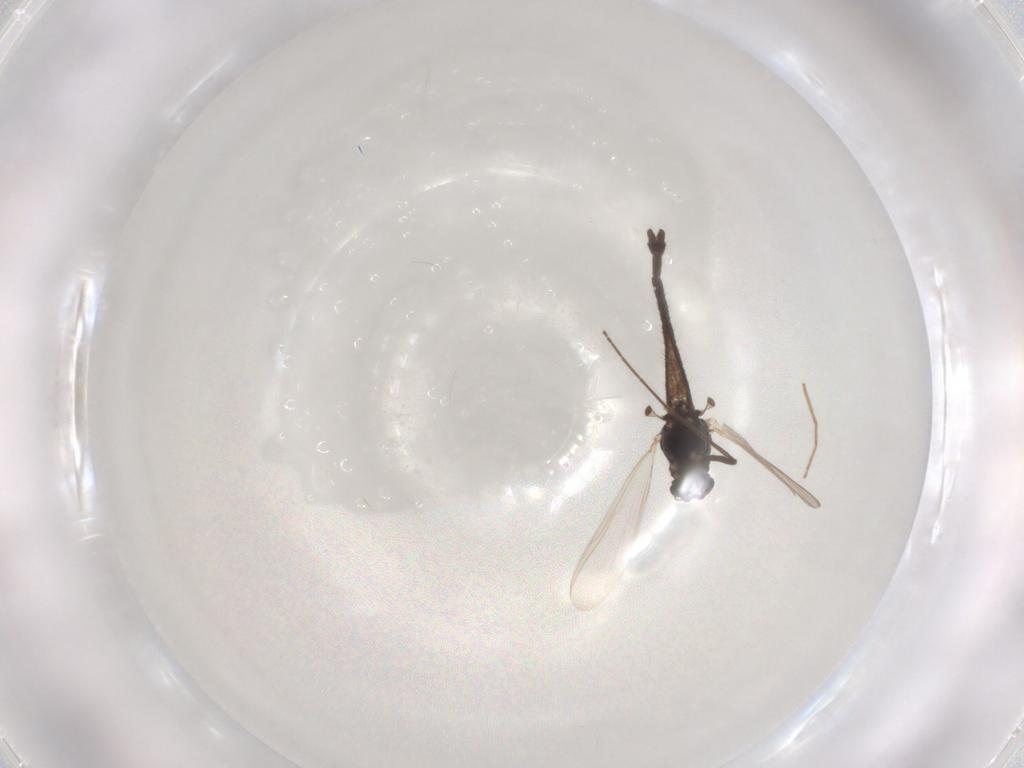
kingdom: Animalia
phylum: Arthropoda
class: Insecta
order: Diptera
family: Chironomidae
